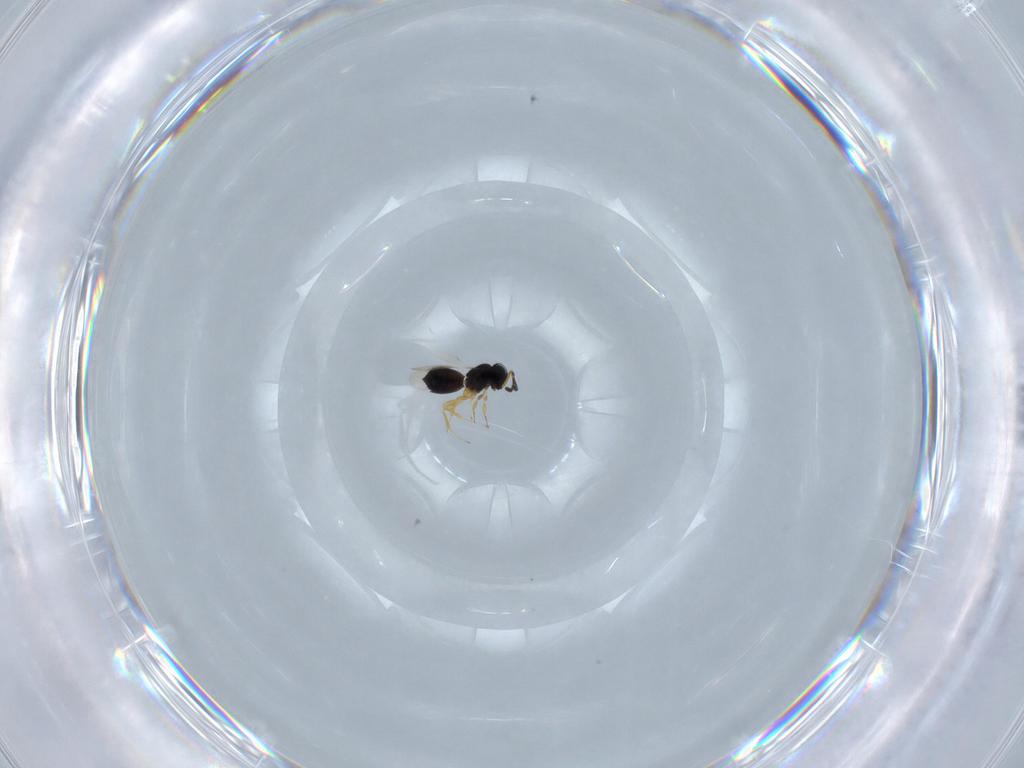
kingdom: Animalia
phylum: Arthropoda
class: Insecta
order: Hymenoptera
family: Scelionidae
